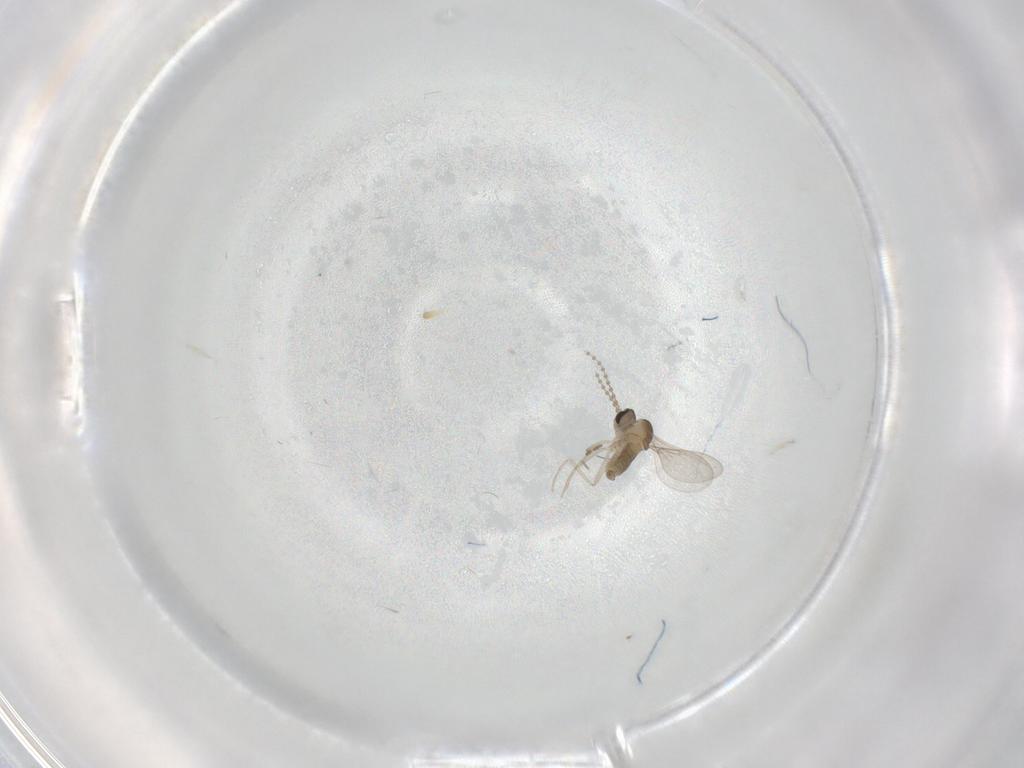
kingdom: Animalia
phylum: Arthropoda
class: Insecta
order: Diptera
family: Cecidomyiidae
